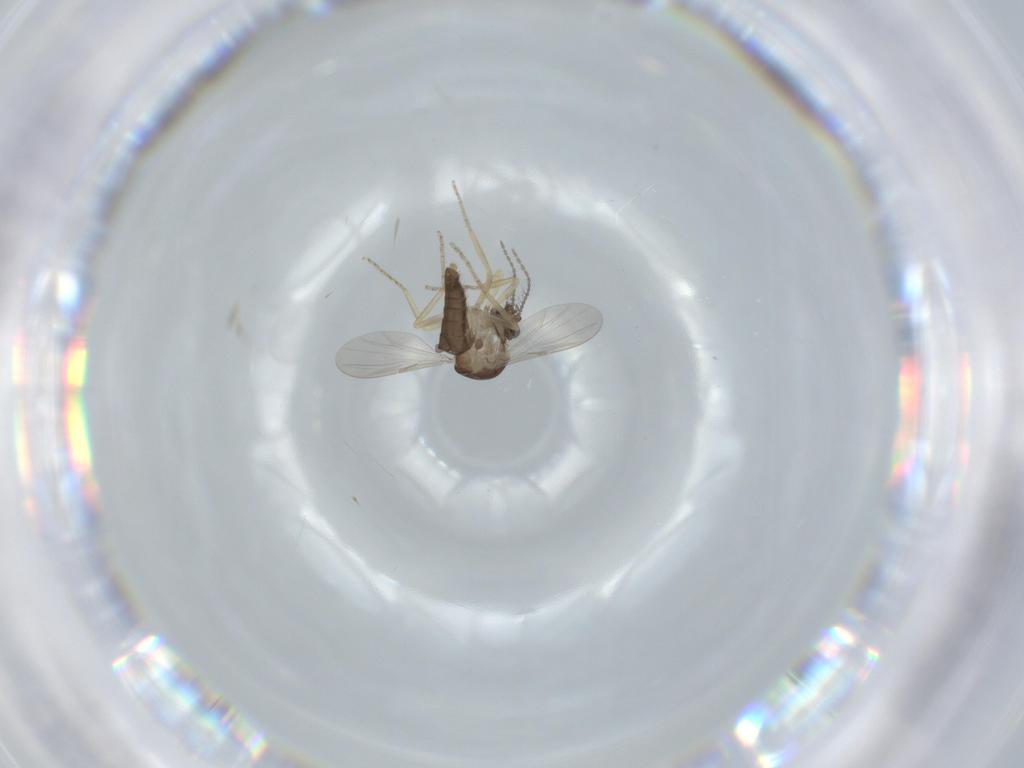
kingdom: Animalia
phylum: Arthropoda
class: Insecta
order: Diptera
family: Ceratopogonidae
